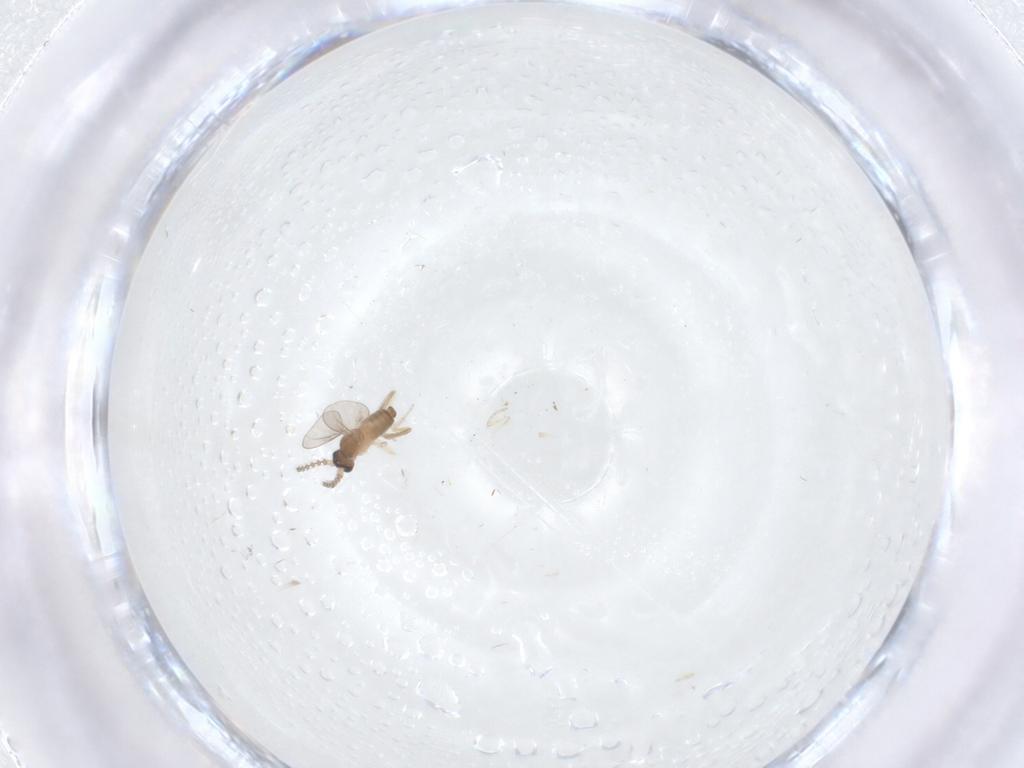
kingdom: Animalia
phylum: Arthropoda
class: Insecta
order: Diptera
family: Cecidomyiidae
